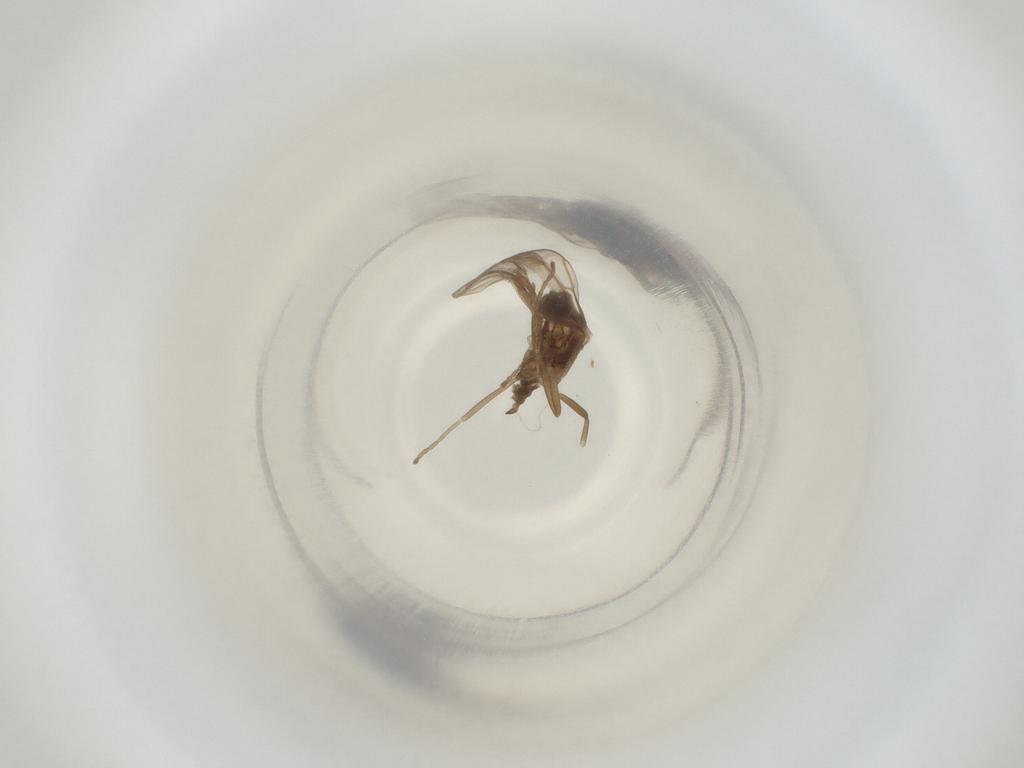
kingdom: Animalia
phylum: Arthropoda
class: Insecta
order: Diptera
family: Cecidomyiidae
